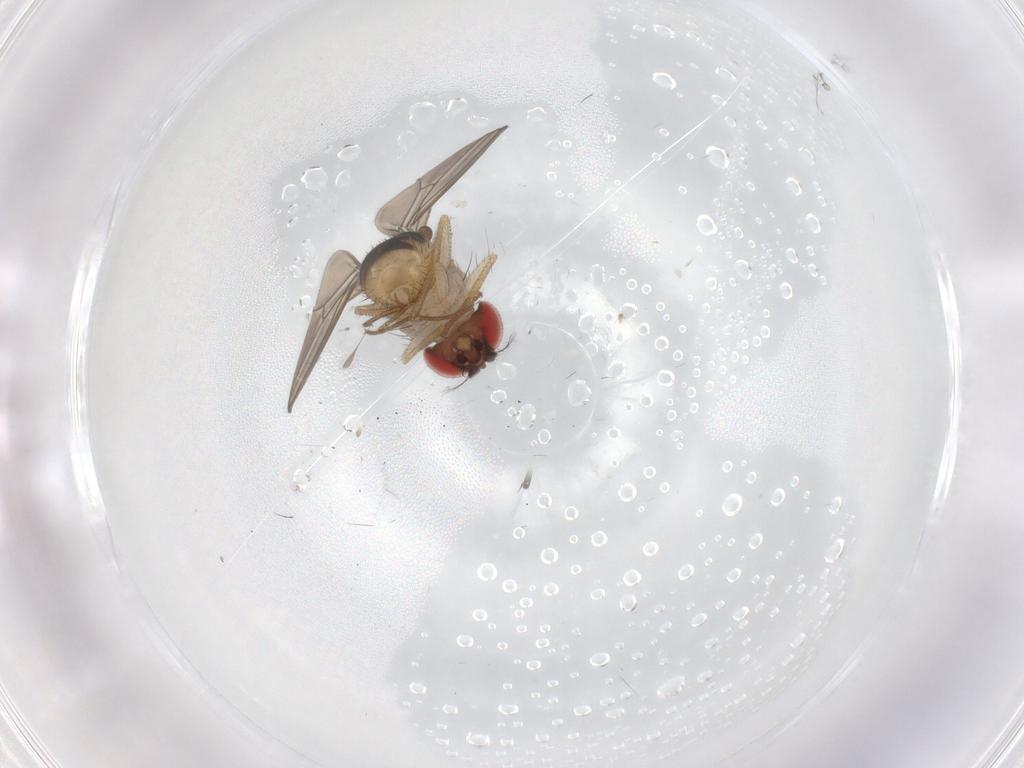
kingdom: Animalia
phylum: Arthropoda
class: Insecta
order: Diptera
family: Drosophilidae
